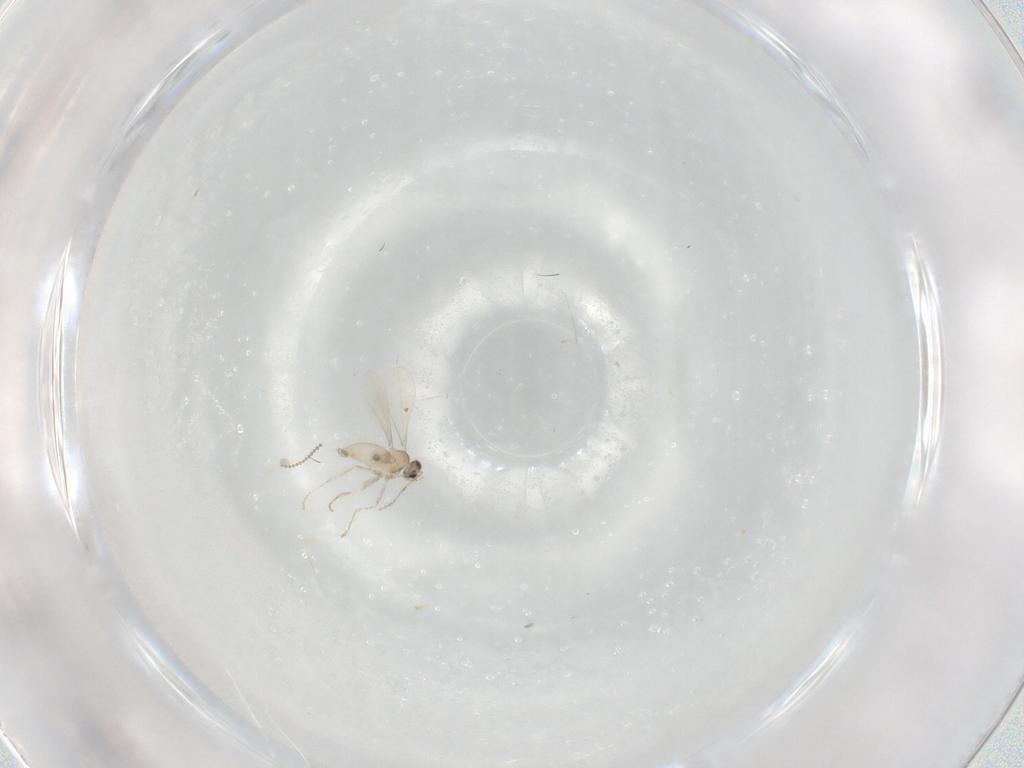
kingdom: Animalia
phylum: Arthropoda
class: Insecta
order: Diptera
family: Cecidomyiidae
